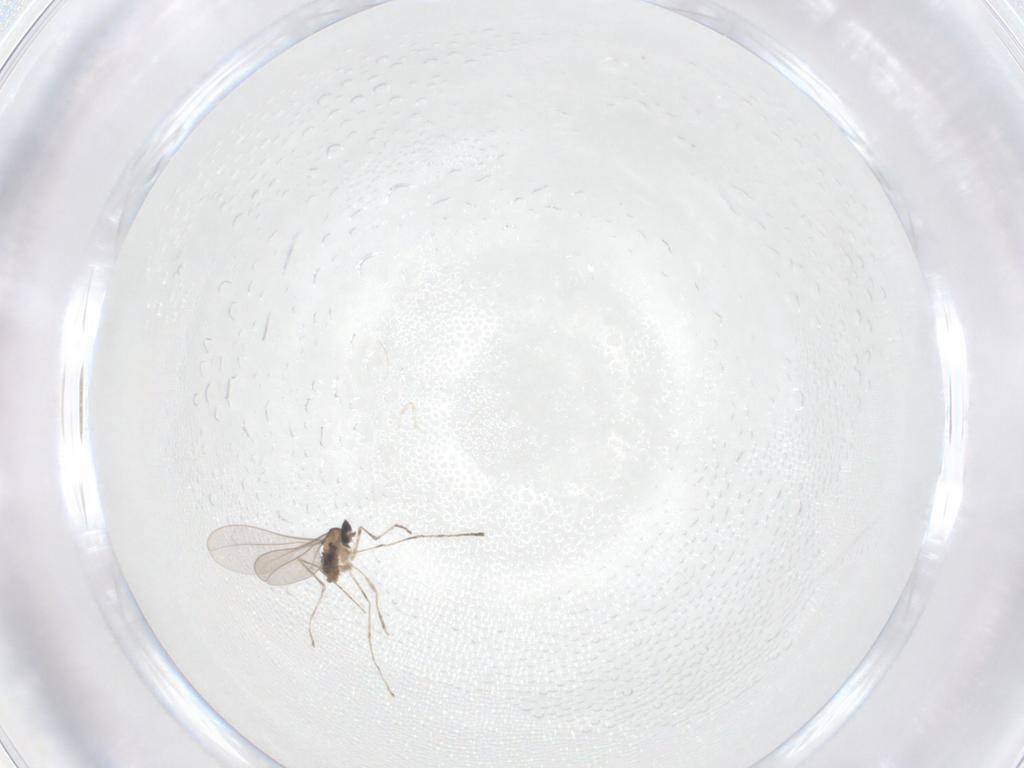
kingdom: Animalia
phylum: Arthropoda
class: Insecta
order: Diptera
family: Cecidomyiidae
